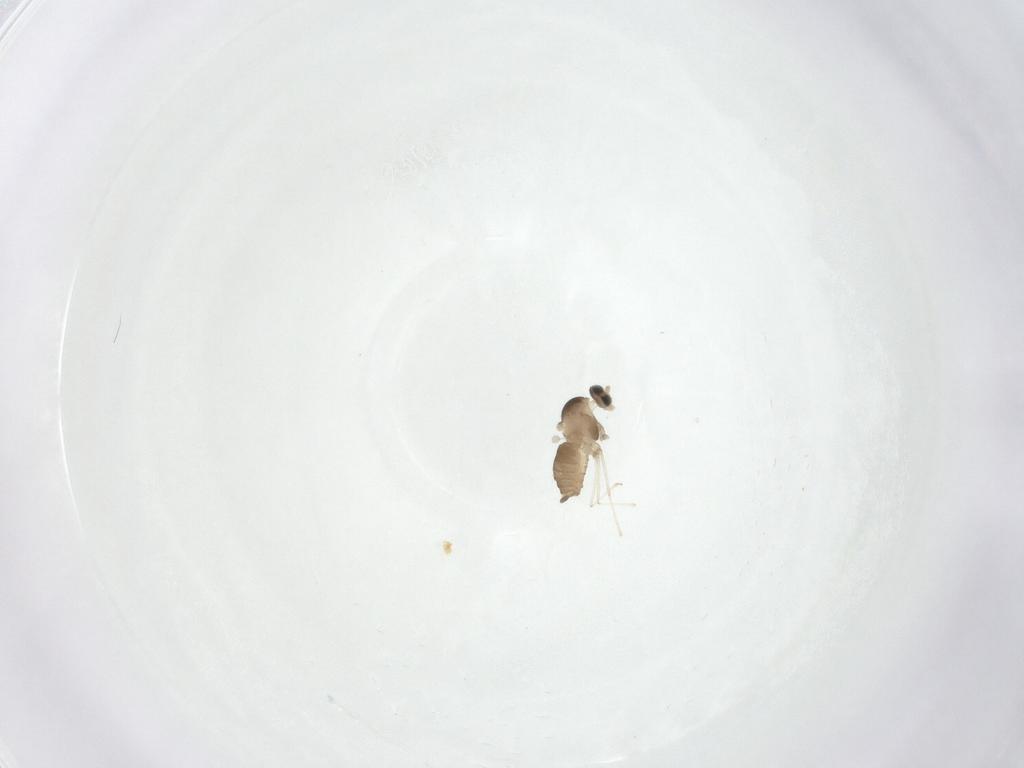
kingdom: Animalia
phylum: Arthropoda
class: Insecta
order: Diptera
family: Cecidomyiidae
